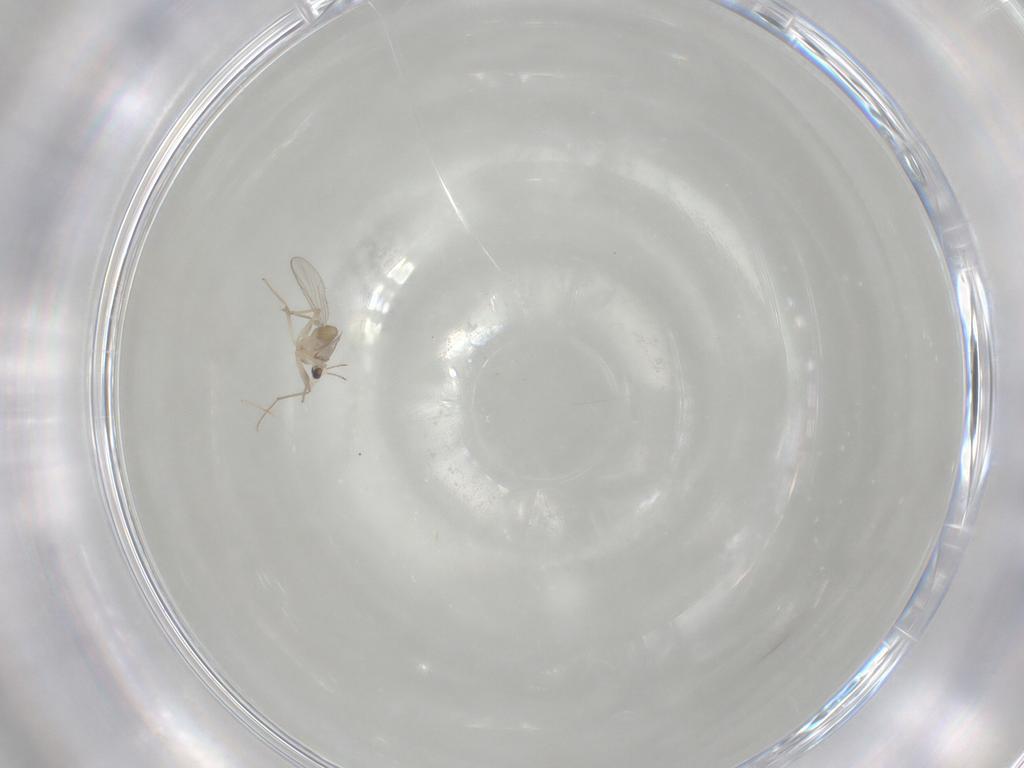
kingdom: Animalia
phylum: Arthropoda
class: Insecta
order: Diptera
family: Chironomidae
